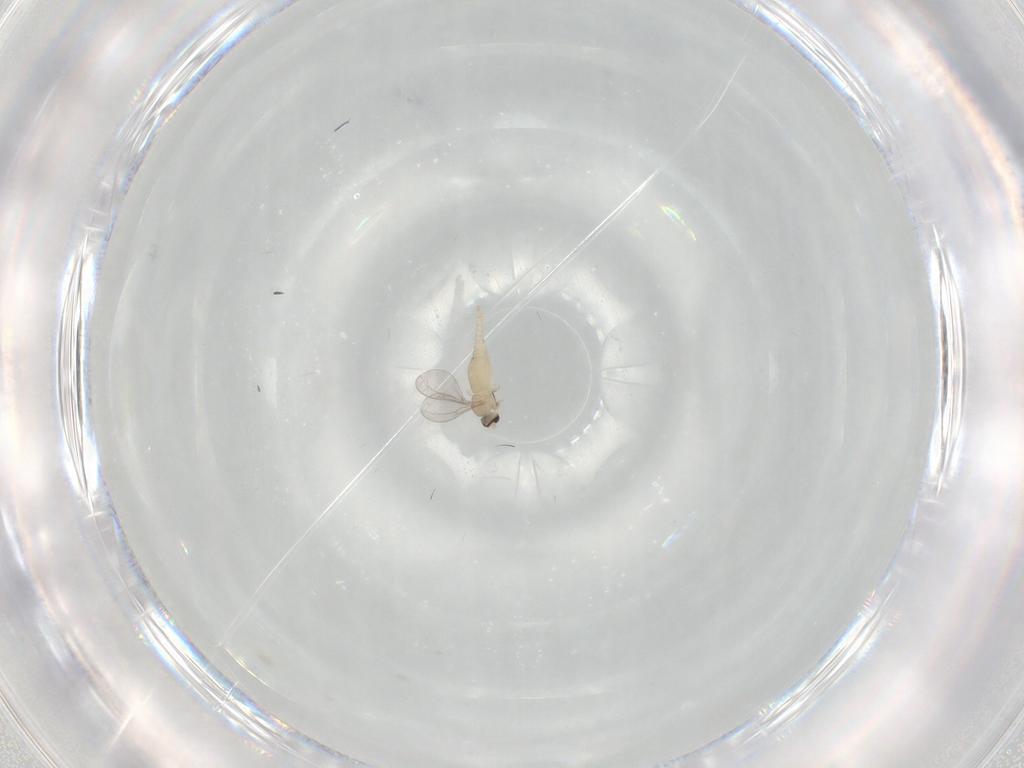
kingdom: Animalia
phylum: Arthropoda
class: Insecta
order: Diptera
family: Cecidomyiidae
